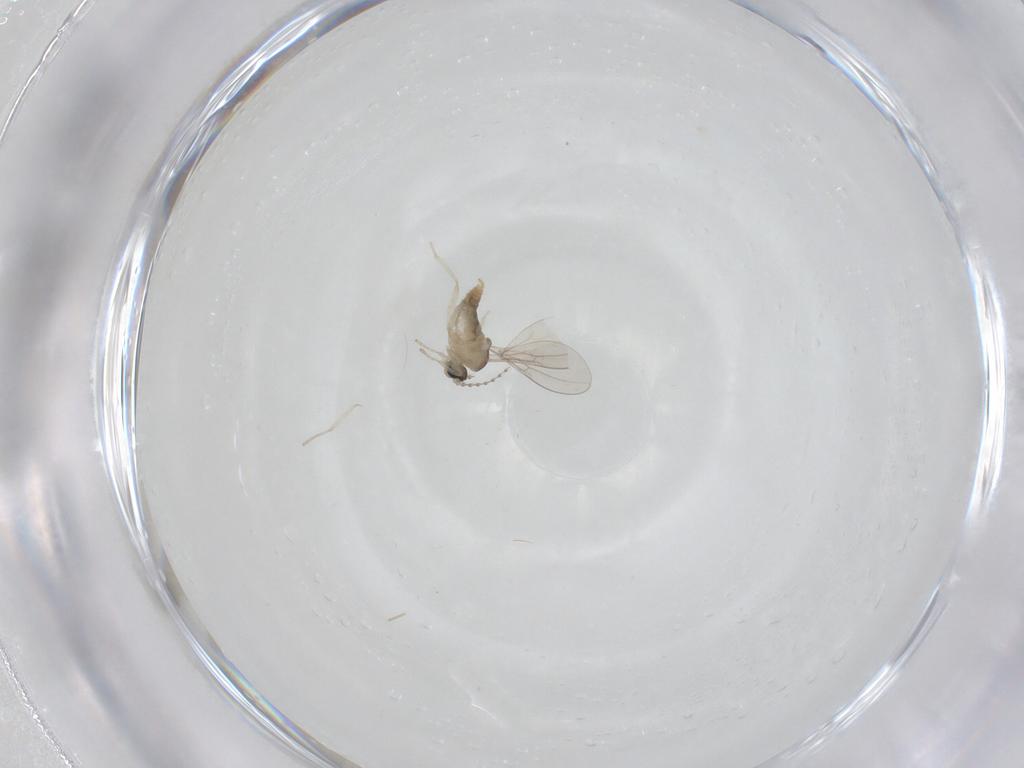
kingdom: Animalia
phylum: Arthropoda
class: Insecta
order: Diptera
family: Cecidomyiidae
